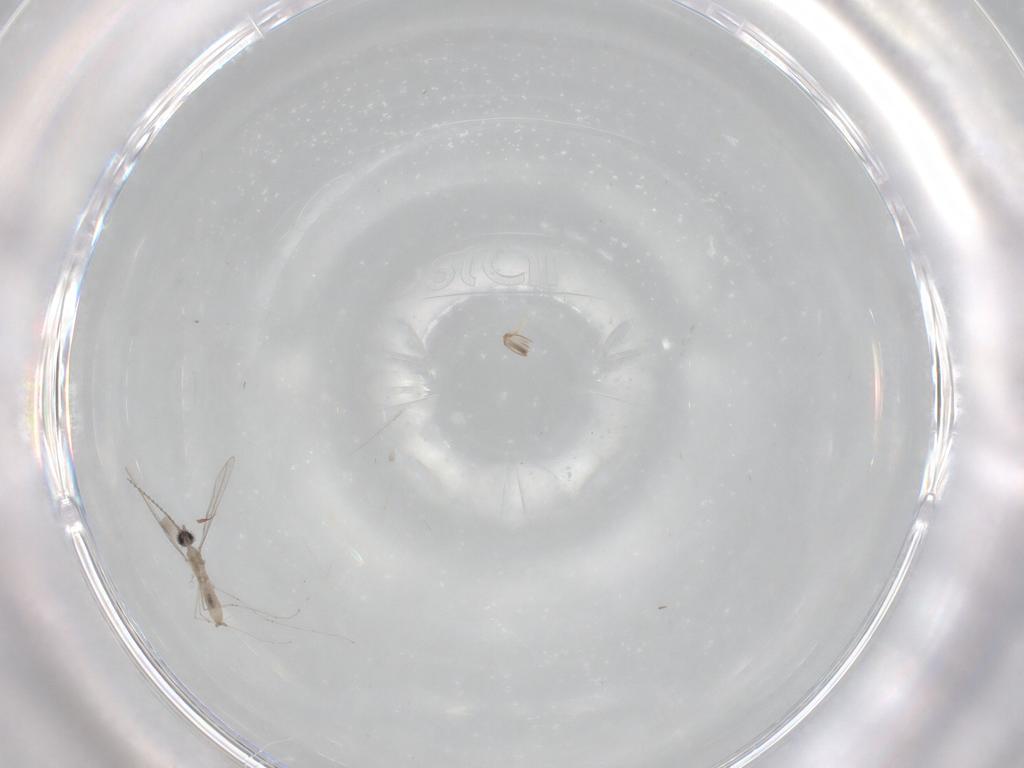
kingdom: Animalia
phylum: Arthropoda
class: Insecta
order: Diptera
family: Cecidomyiidae
